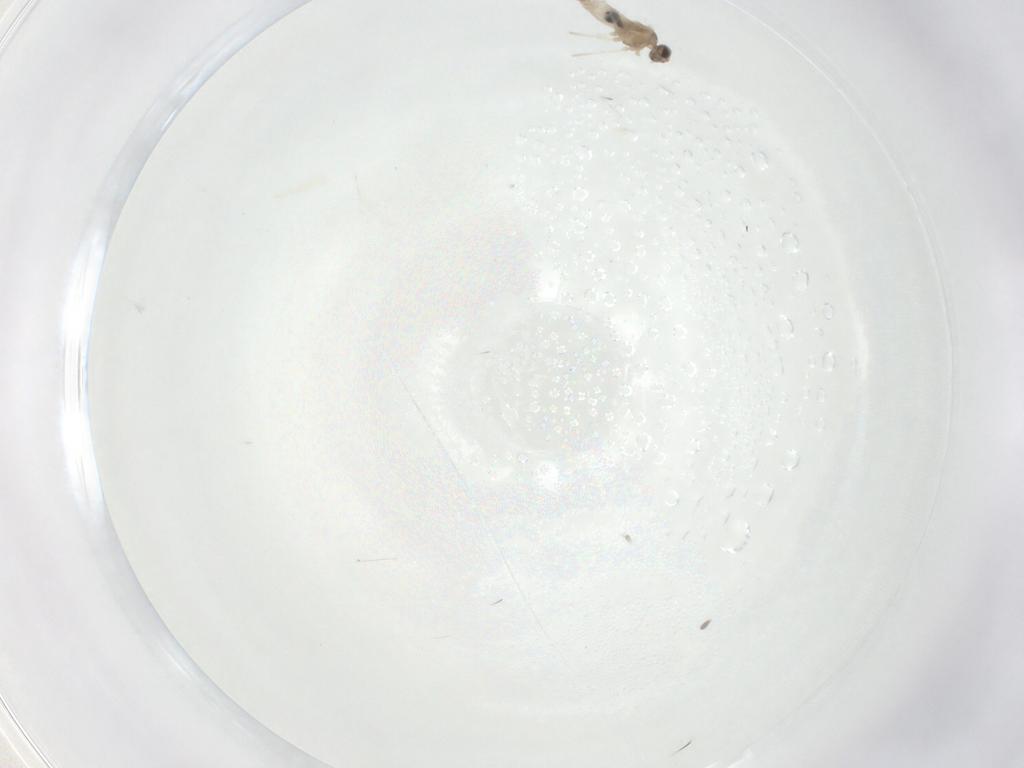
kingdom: Animalia
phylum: Arthropoda
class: Insecta
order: Diptera
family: Cecidomyiidae
